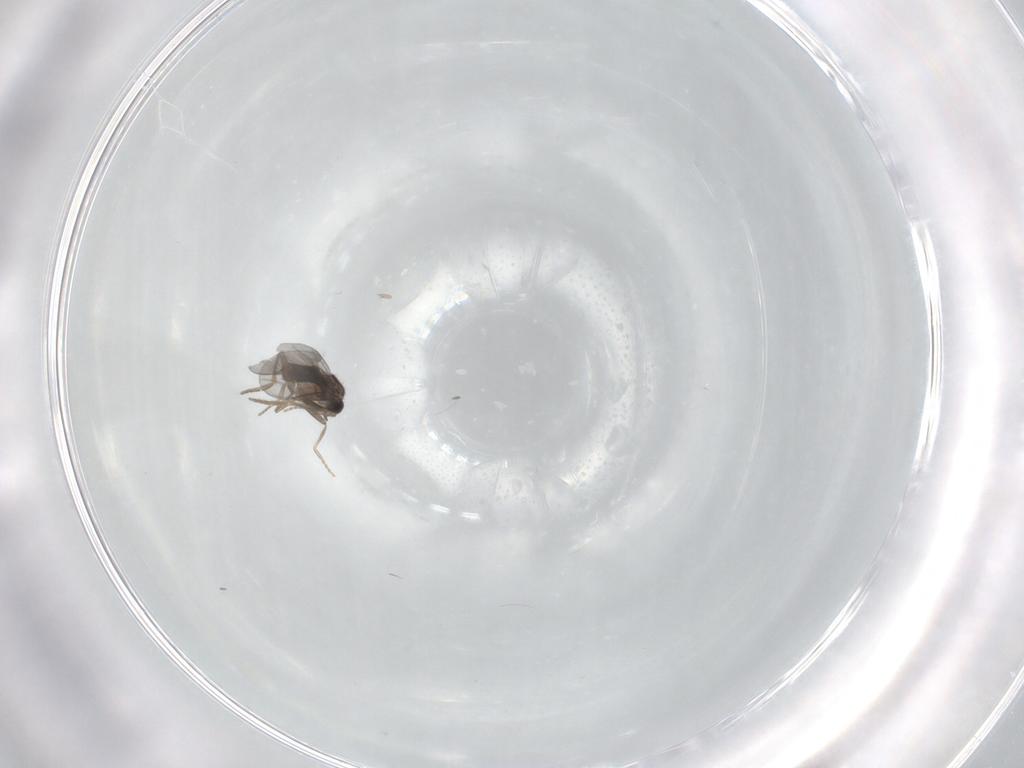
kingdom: Animalia
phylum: Arthropoda
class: Insecta
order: Diptera
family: Chironomidae
